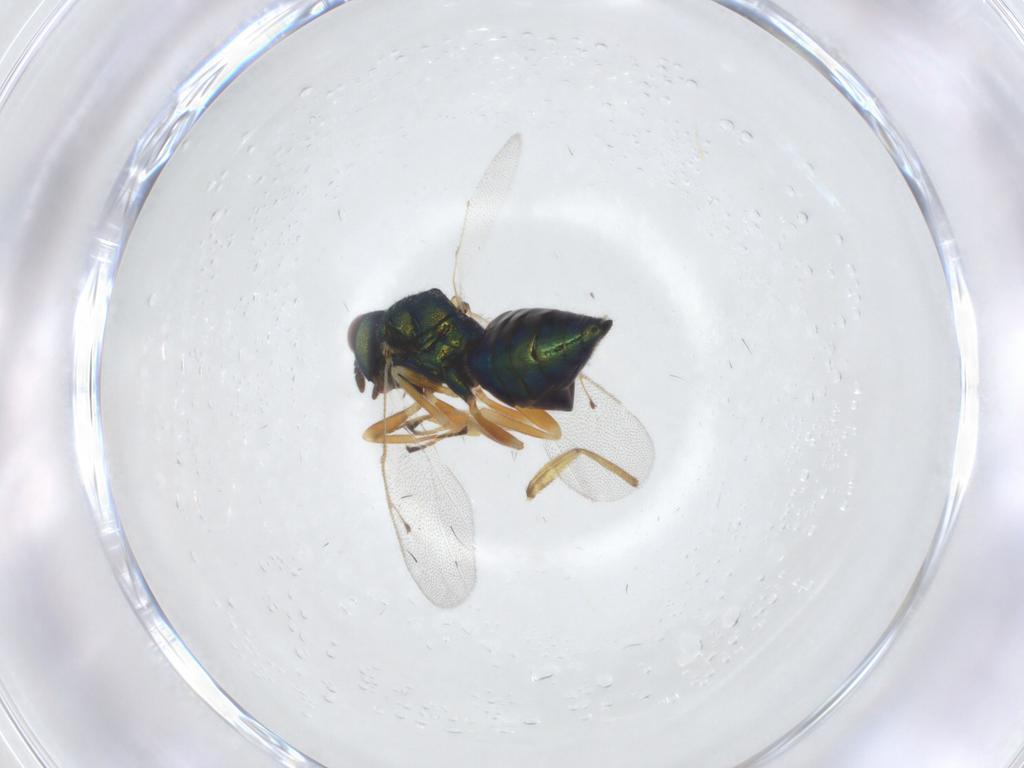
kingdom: Animalia
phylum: Arthropoda
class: Insecta
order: Hymenoptera
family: Pteromalidae
